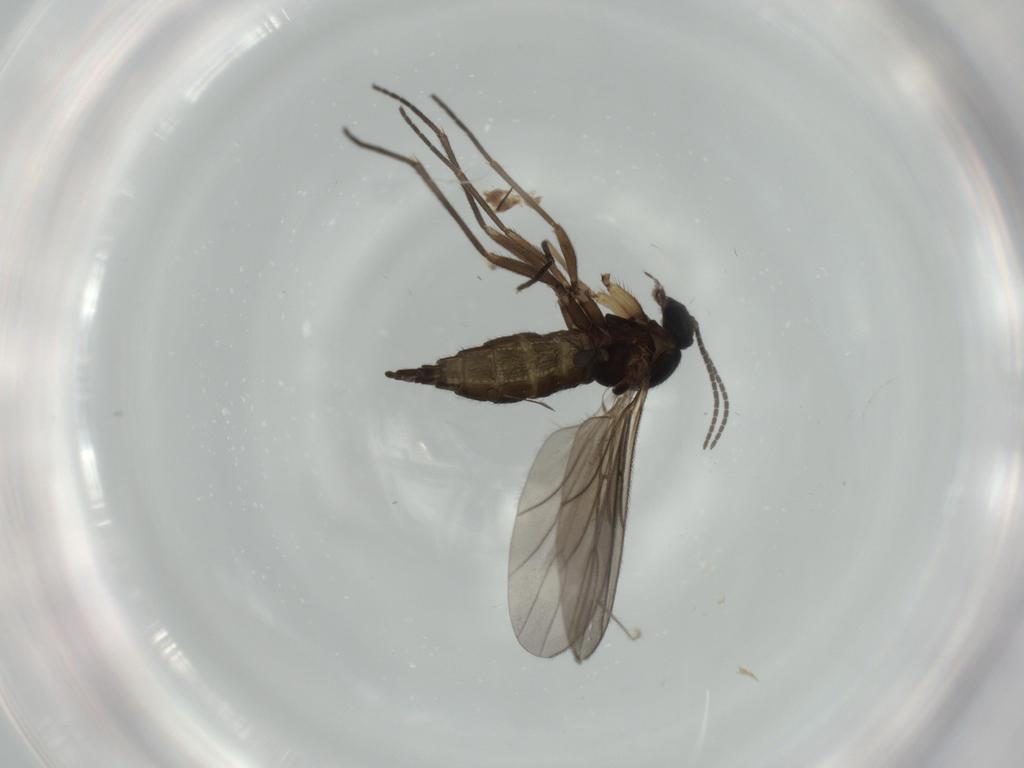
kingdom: Animalia
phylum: Arthropoda
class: Insecta
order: Diptera
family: Sciaridae
